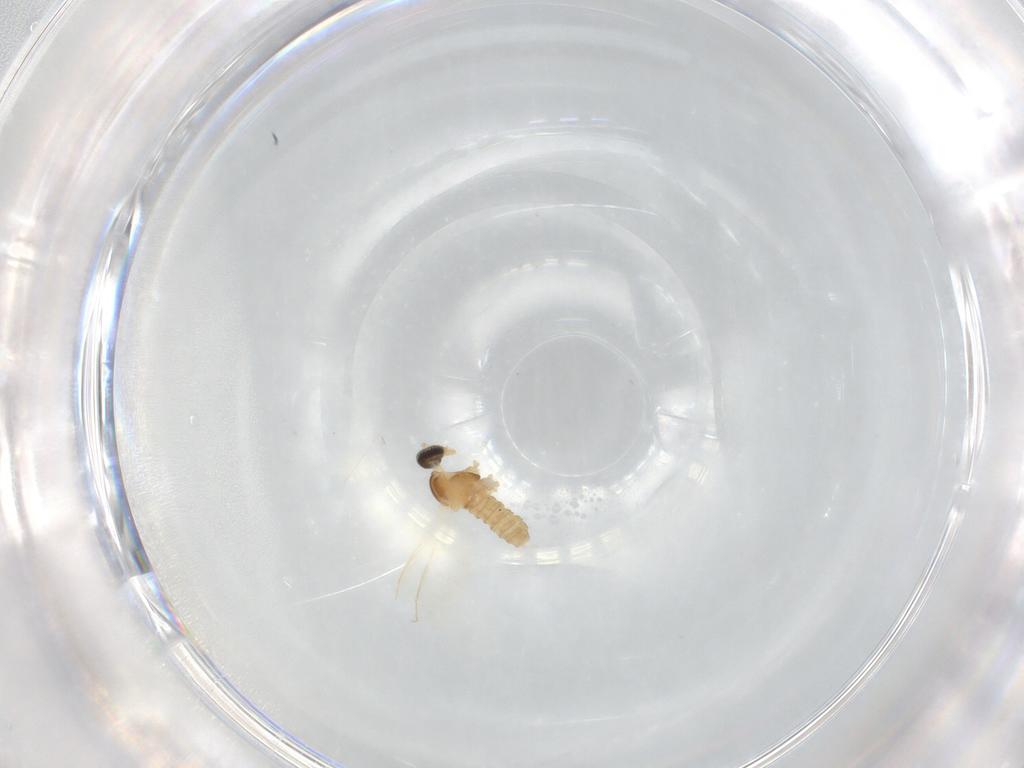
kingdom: Animalia
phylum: Arthropoda
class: Insecta
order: Diptera
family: Cecidomyiidae
